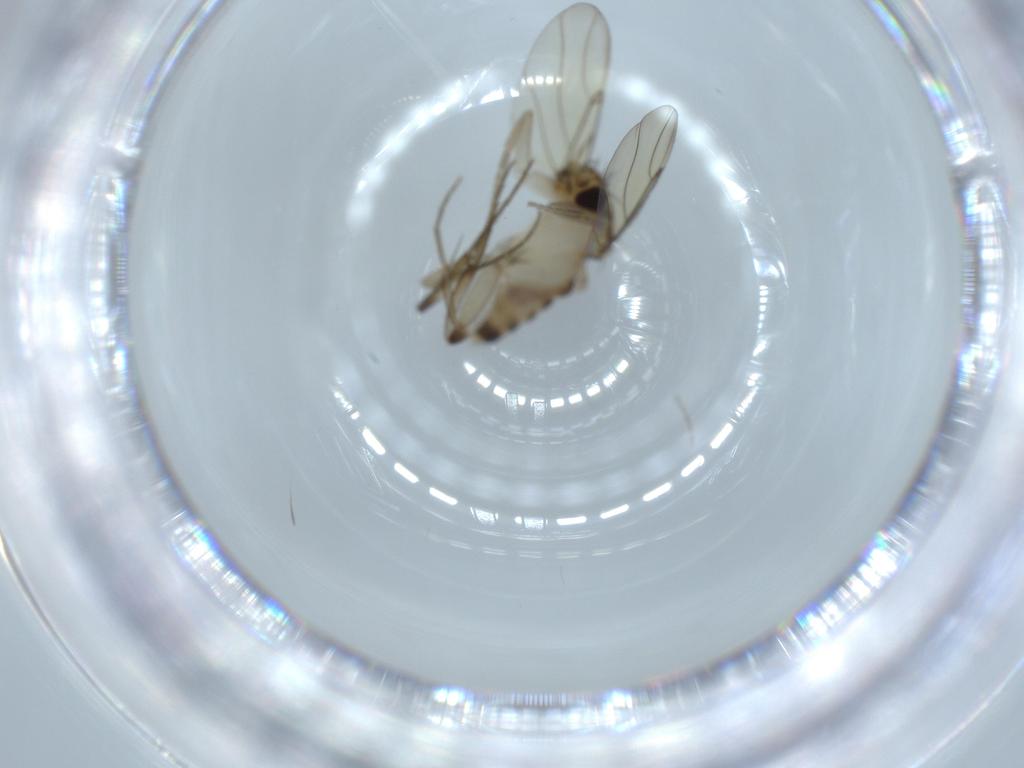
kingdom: Animalia
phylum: Arthropoda
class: Insecta
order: Diptera
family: Phoridae
